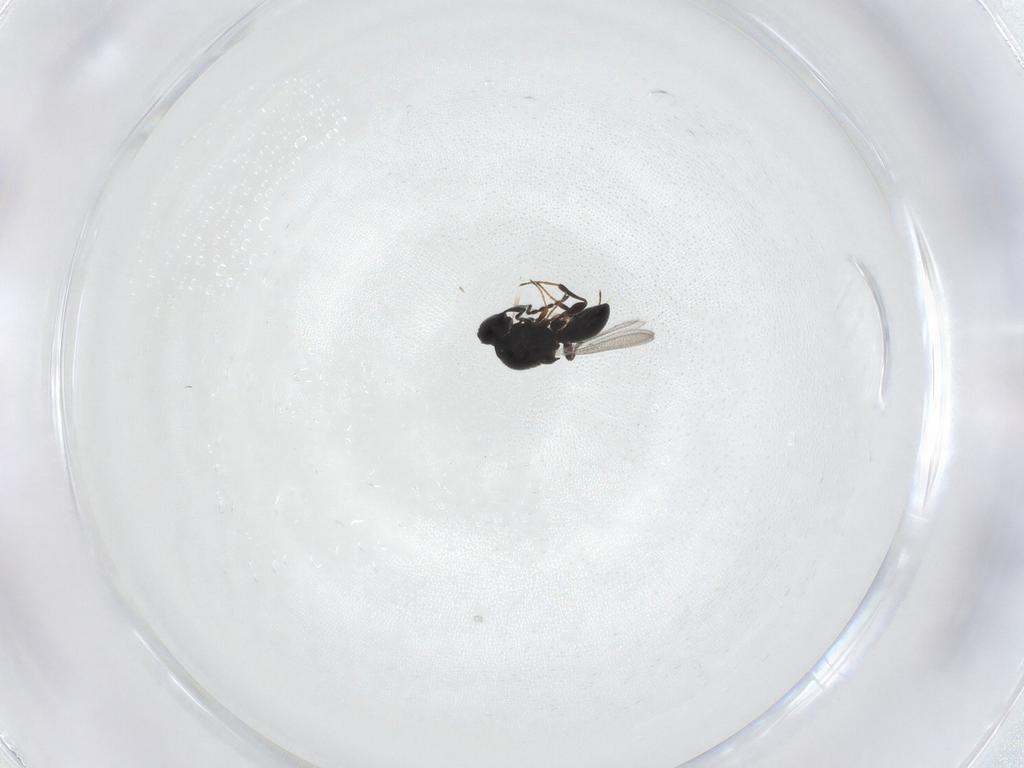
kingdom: Animalia
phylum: Arthropoda
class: Insecta
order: Hymenoptera
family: Platygastridae
